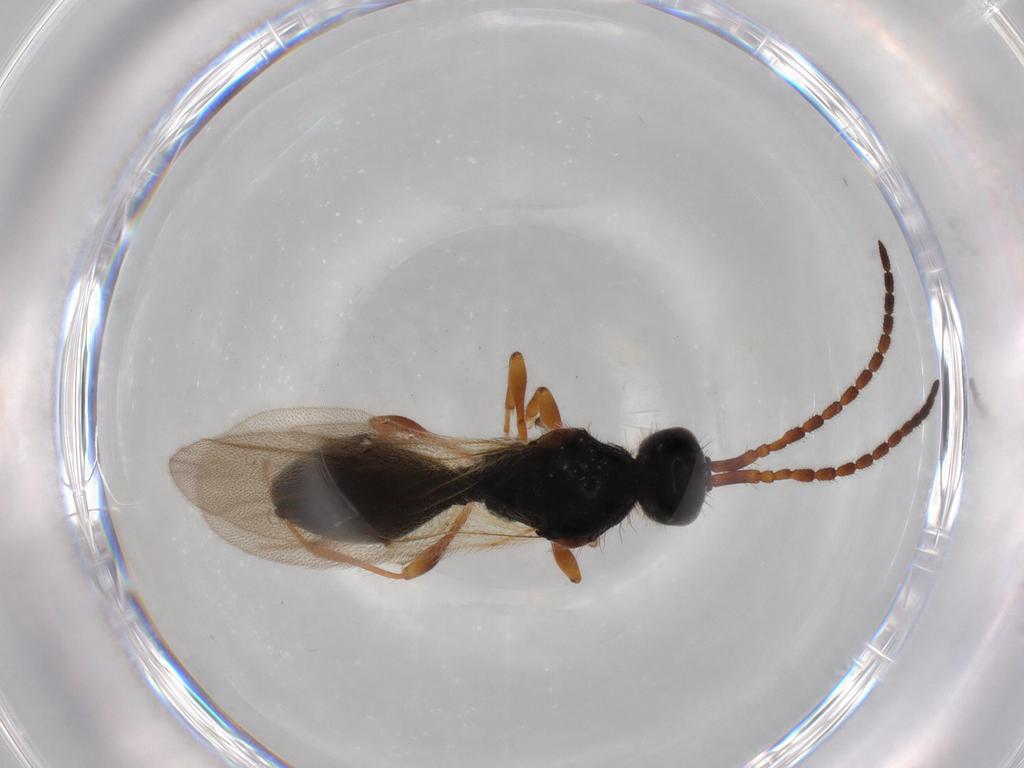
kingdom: Animalia
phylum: Arthropoda
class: Insecta
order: Hymenoptera
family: Diapriidae
